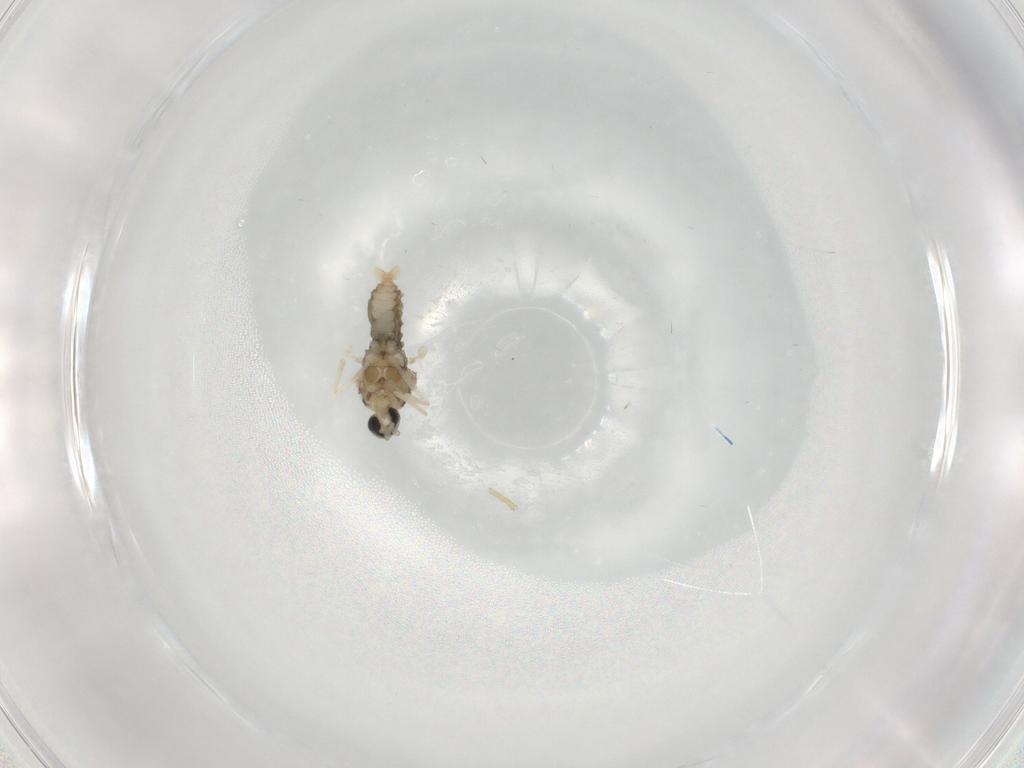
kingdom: Animalia
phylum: Arthropoda
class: Insecta
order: Diptera
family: Cecidomyiidae
